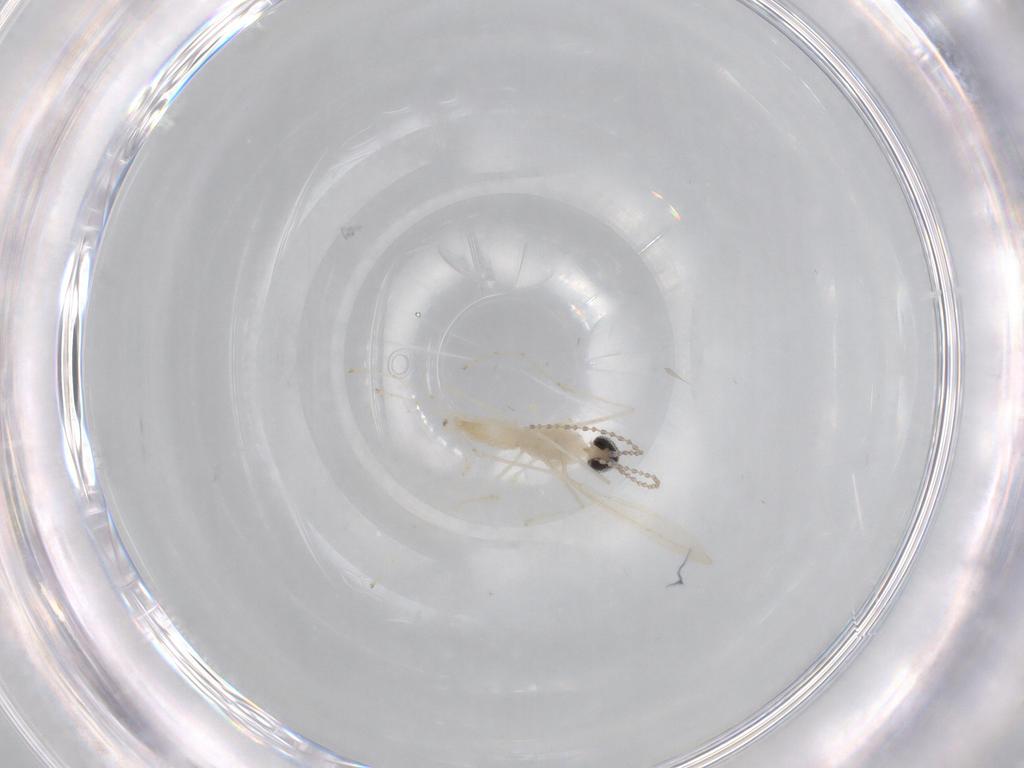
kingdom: Animalia
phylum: Arthropoda
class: Insecta
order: Diptera
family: Cecidomyiidae
